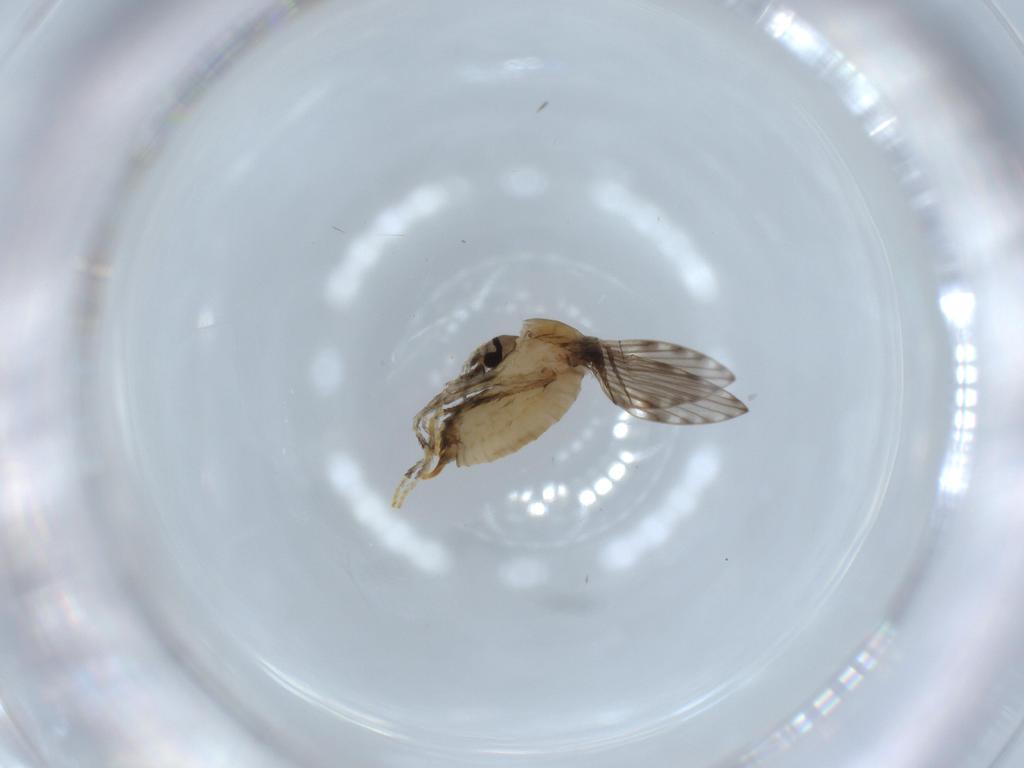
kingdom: Animalia
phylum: Arthropoda
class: Insecta
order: Diptera
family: Psychodidae
